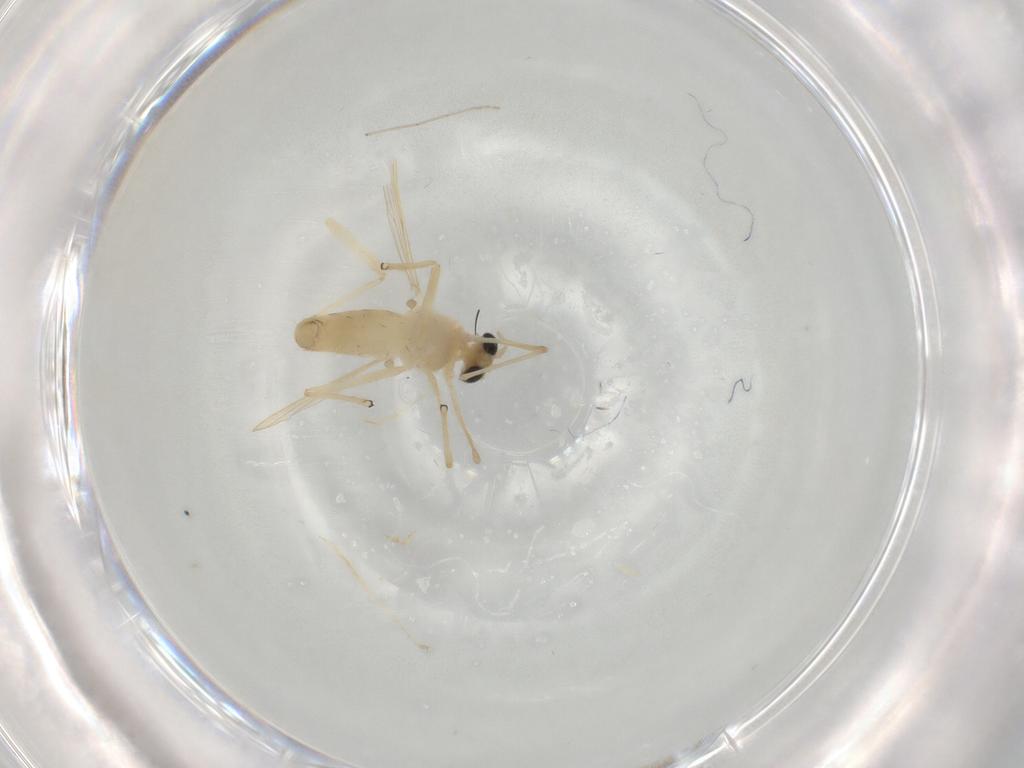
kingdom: Animalia
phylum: Arthropoda
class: Insecta
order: Diptera
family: Chironomidae
